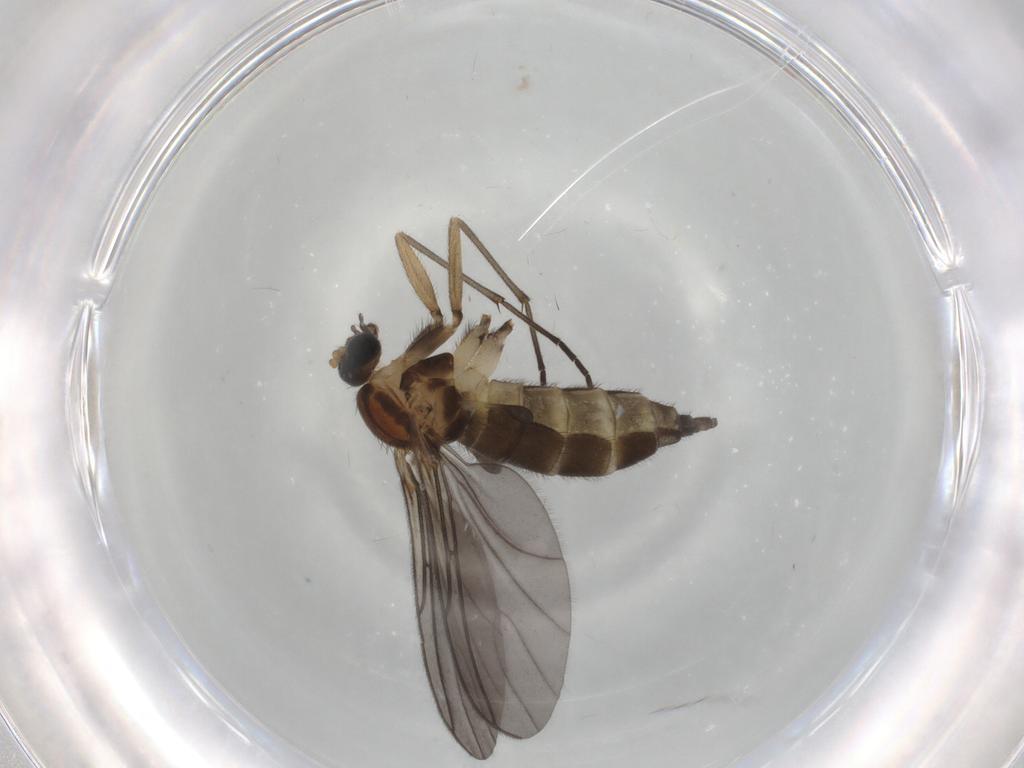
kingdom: Animalia
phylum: Arthropoda
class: Insecta
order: Diptera
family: Sciaridae
